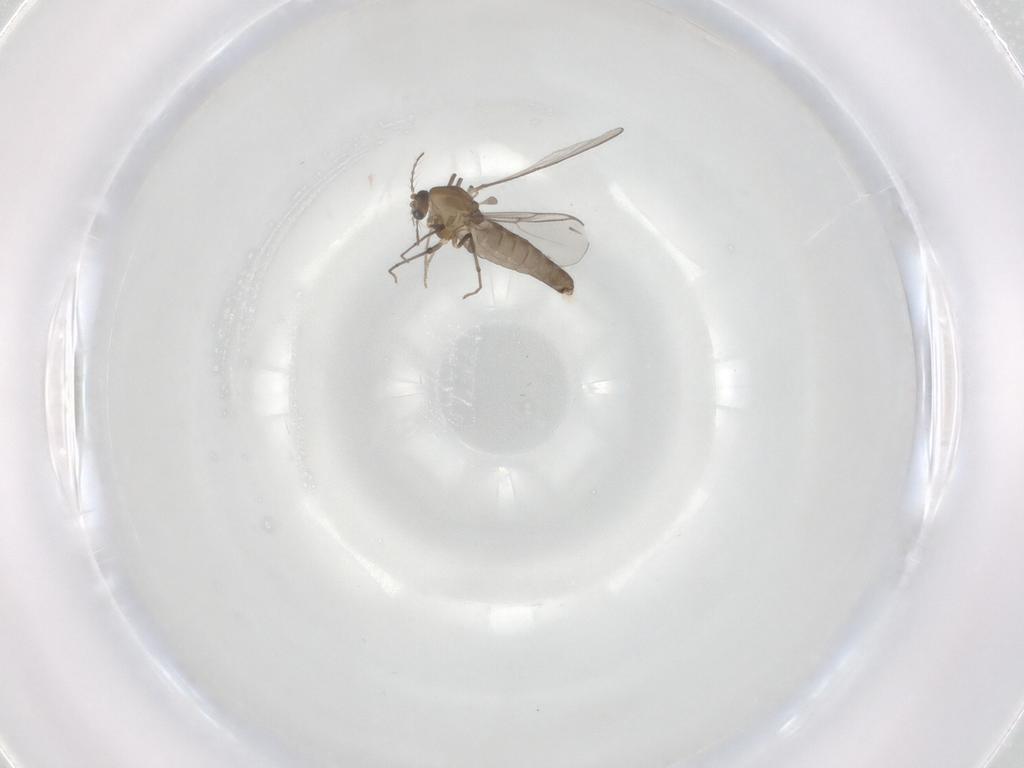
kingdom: Animalia
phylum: Arthropoda
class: Insecta
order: Diptera
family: Chironomidae
